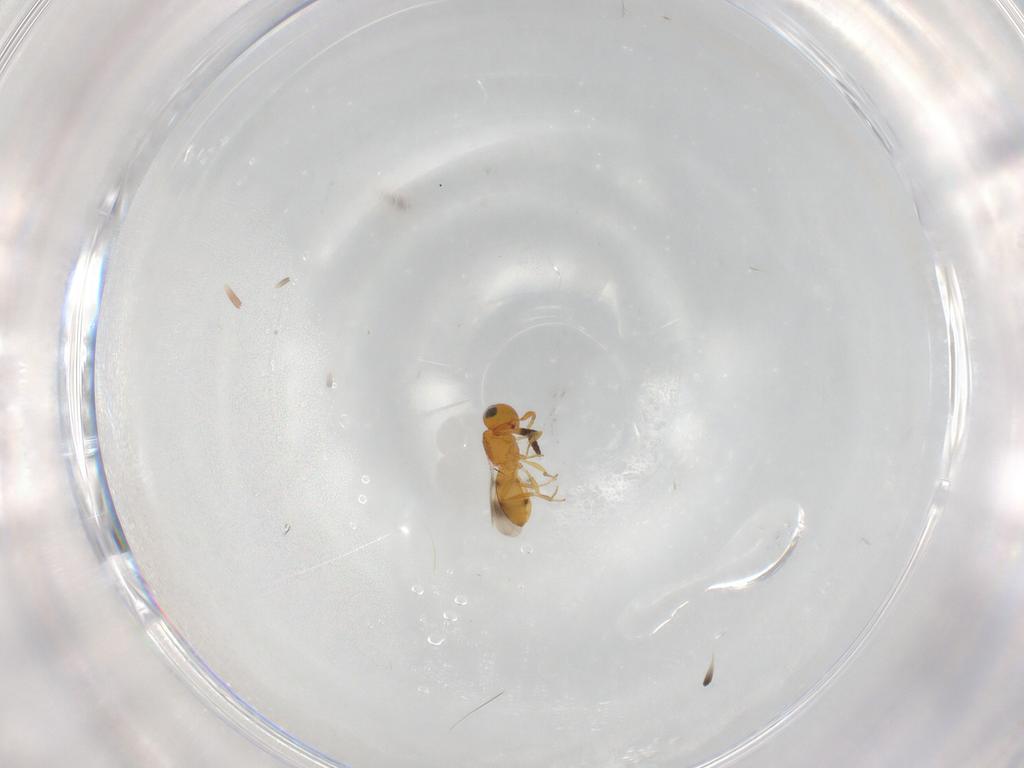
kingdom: Animalia
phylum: Arthropoda
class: Insecta
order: Hymenoptera
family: Scelionidae
